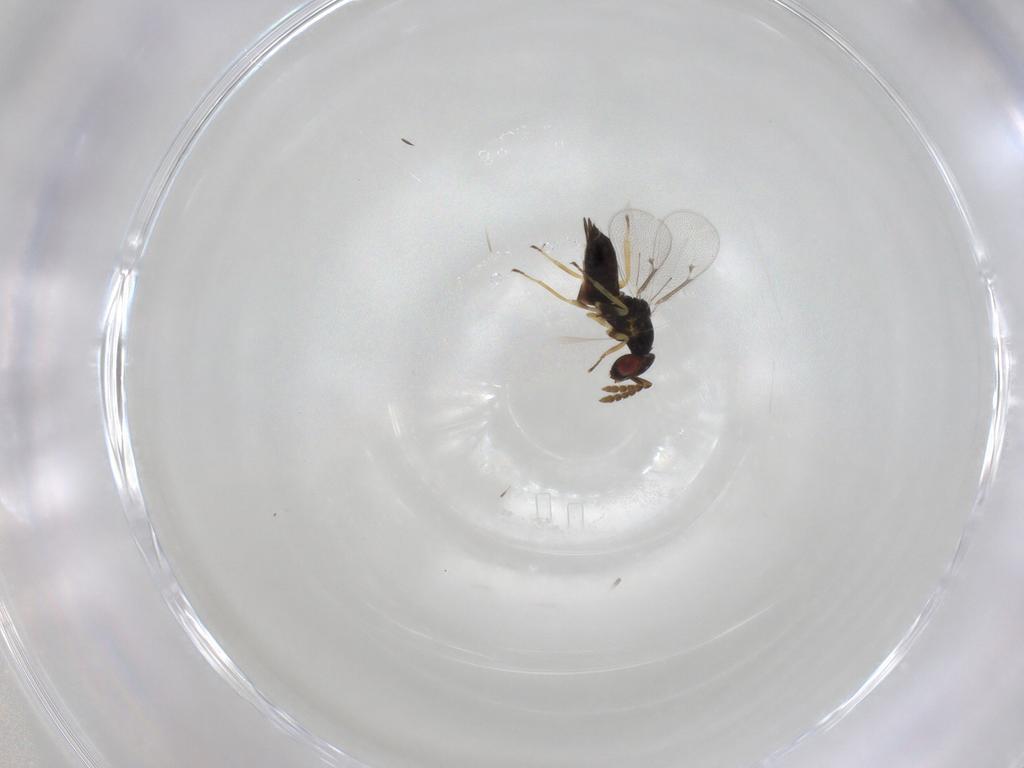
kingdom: Animalia
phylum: Arthropoda
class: Insecta
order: Hymenoptera
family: Eulophidae
